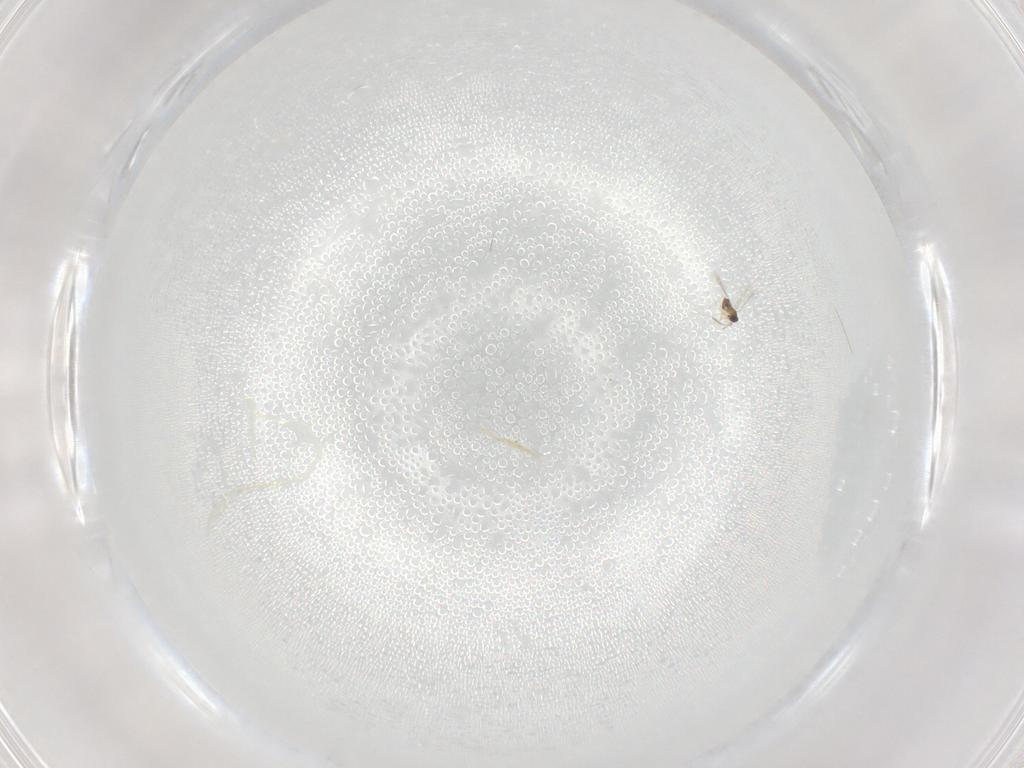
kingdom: Animalia
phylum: Arthropoda
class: Insecta
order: Hymenoptera
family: Scelionidae
